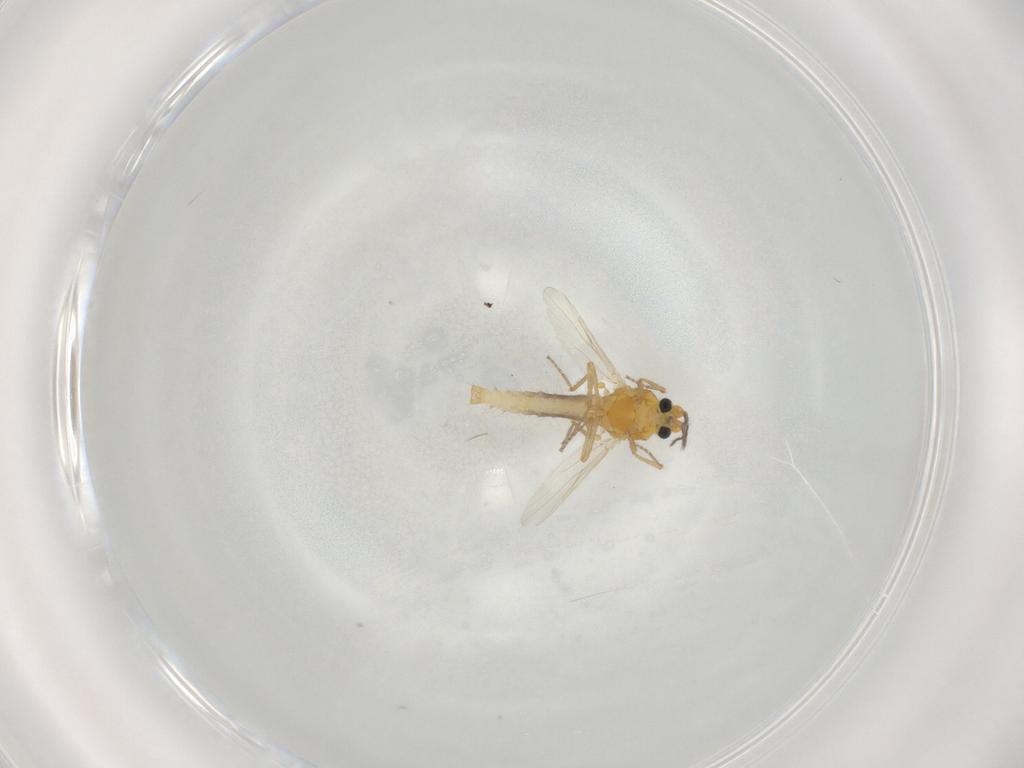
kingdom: Animalia
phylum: Arthropoda
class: Insecta
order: Diptera
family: Ceratopogonidae
